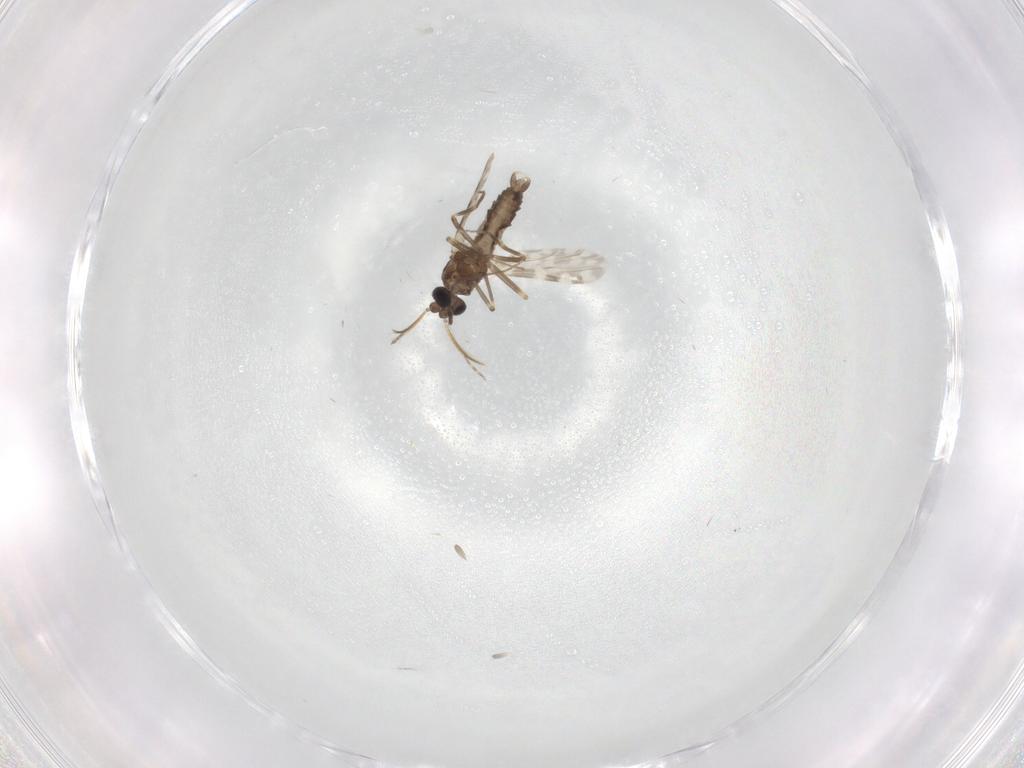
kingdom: Animalia
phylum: Arthropoda
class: Insecta
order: Diptera
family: Ceratopogonidae
